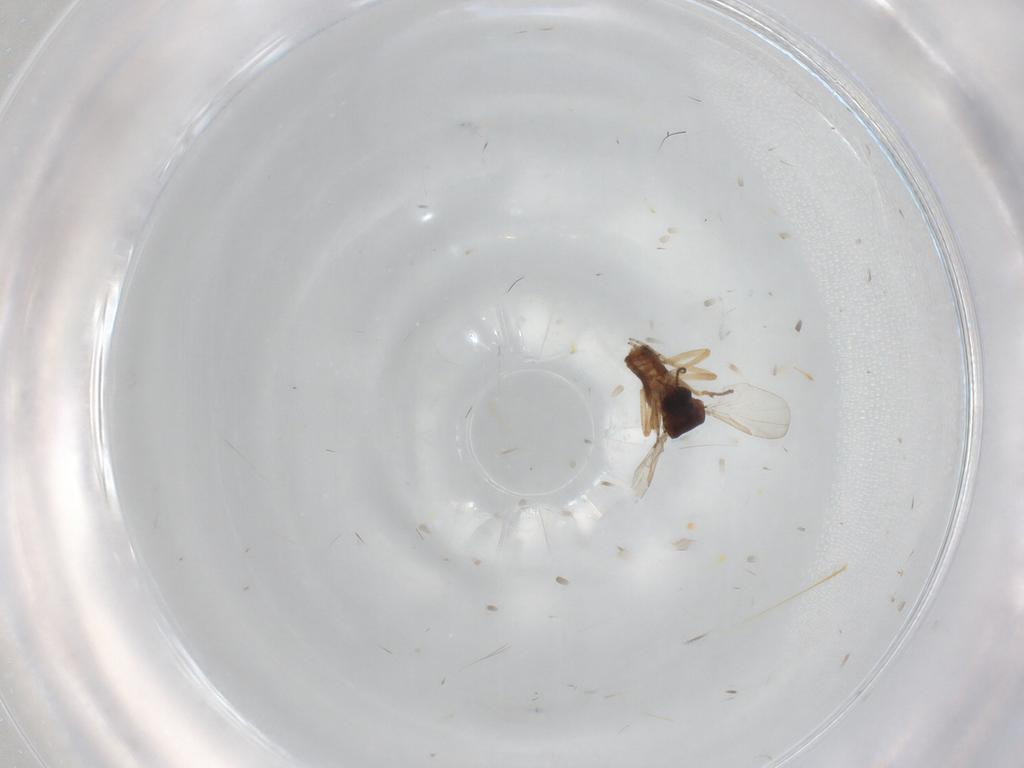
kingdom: Animalia
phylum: Arthropoda
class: Insecta
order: Diptera
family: Ceratopogonidae
